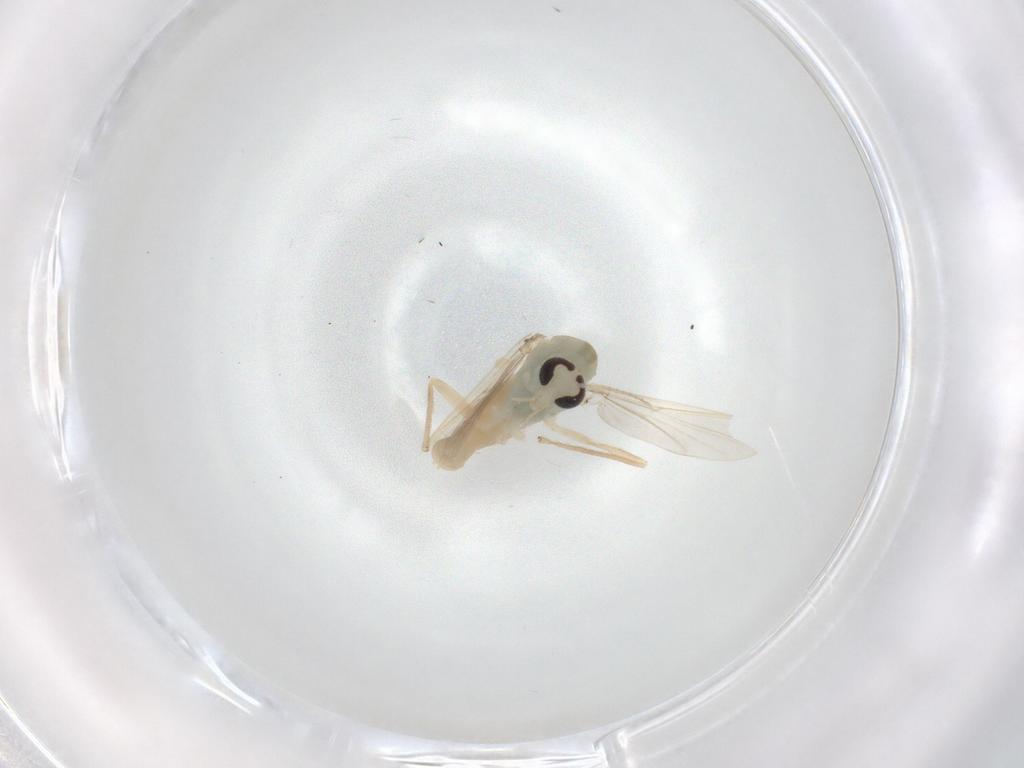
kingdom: Animalia
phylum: Arthropoda
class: Insecta
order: Diptera
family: Chironomidae
